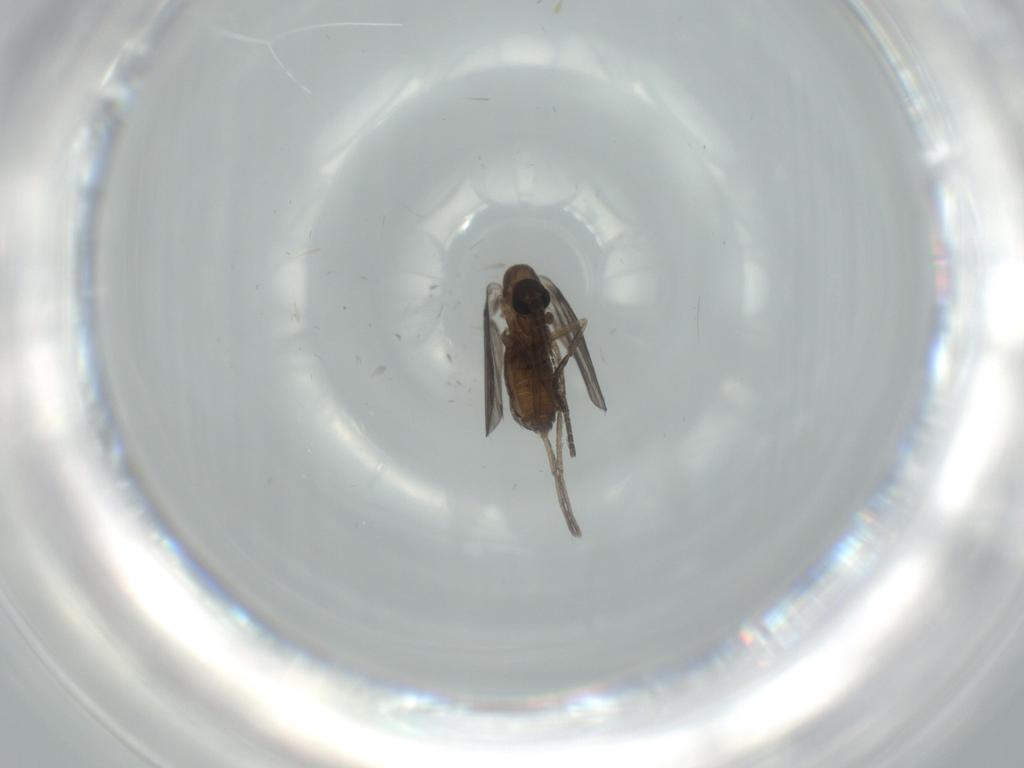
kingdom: Animalia
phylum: Arthropoda
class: Insecta
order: Diptera
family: Psychodidae
